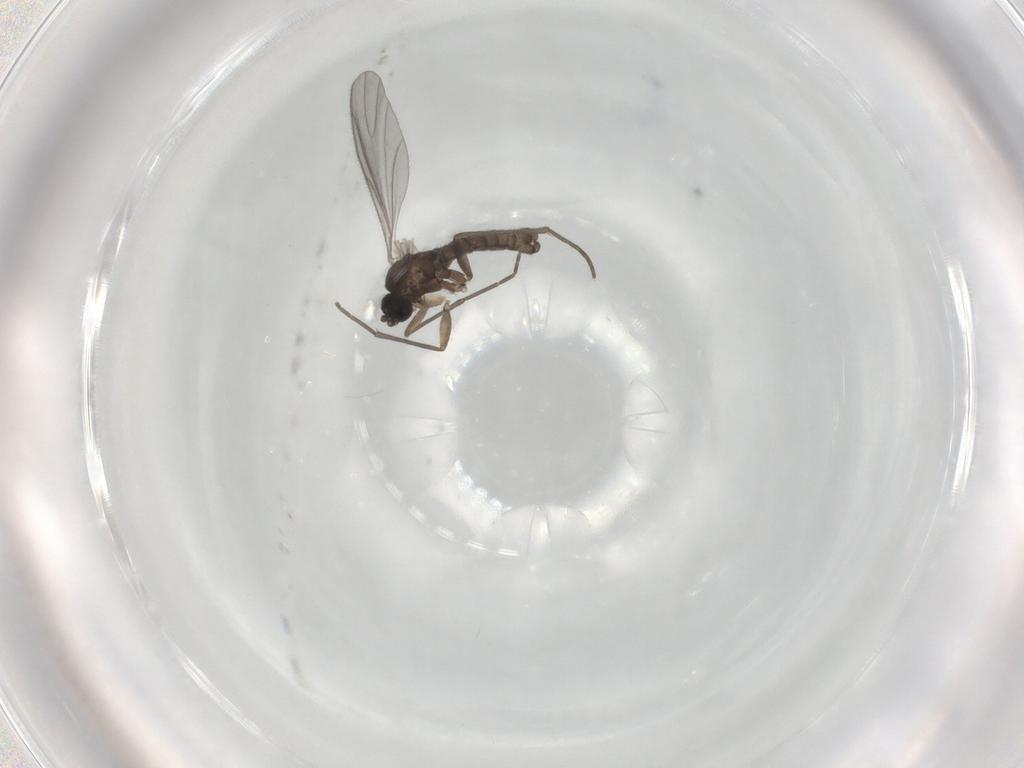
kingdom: Animalia
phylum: Arthropoda
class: Insecta
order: Diptera
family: Sciaridae
